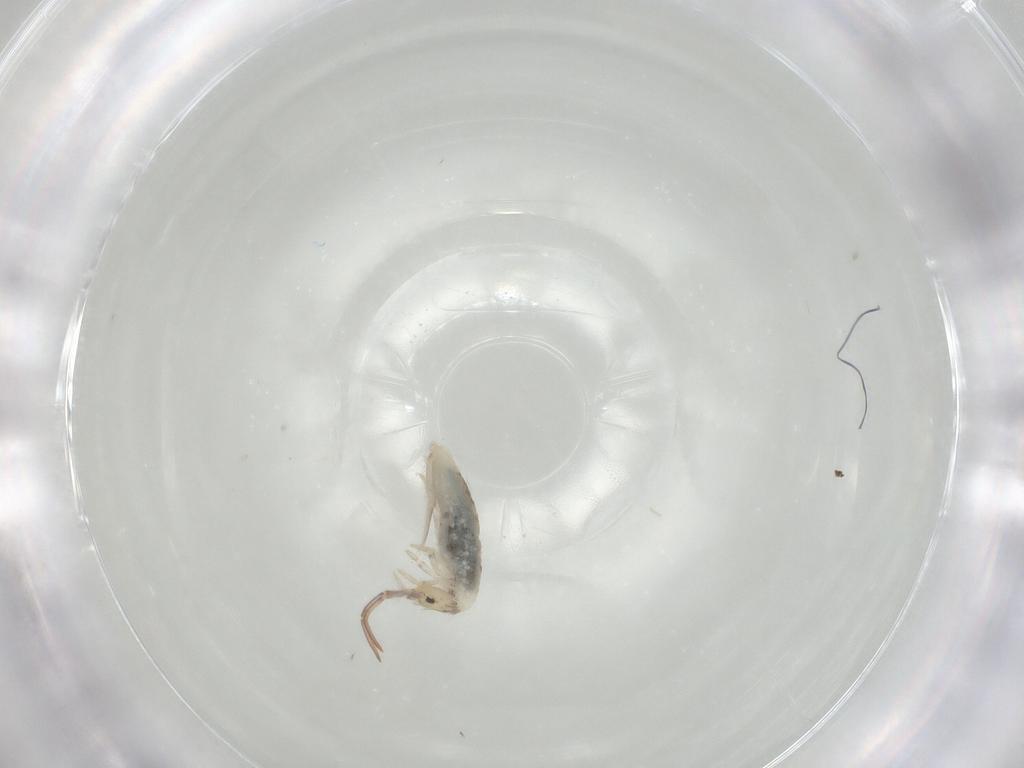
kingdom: Animalia
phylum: Arthropoda
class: Collembola
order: Entomobryomorpha
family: Entomobryidae
